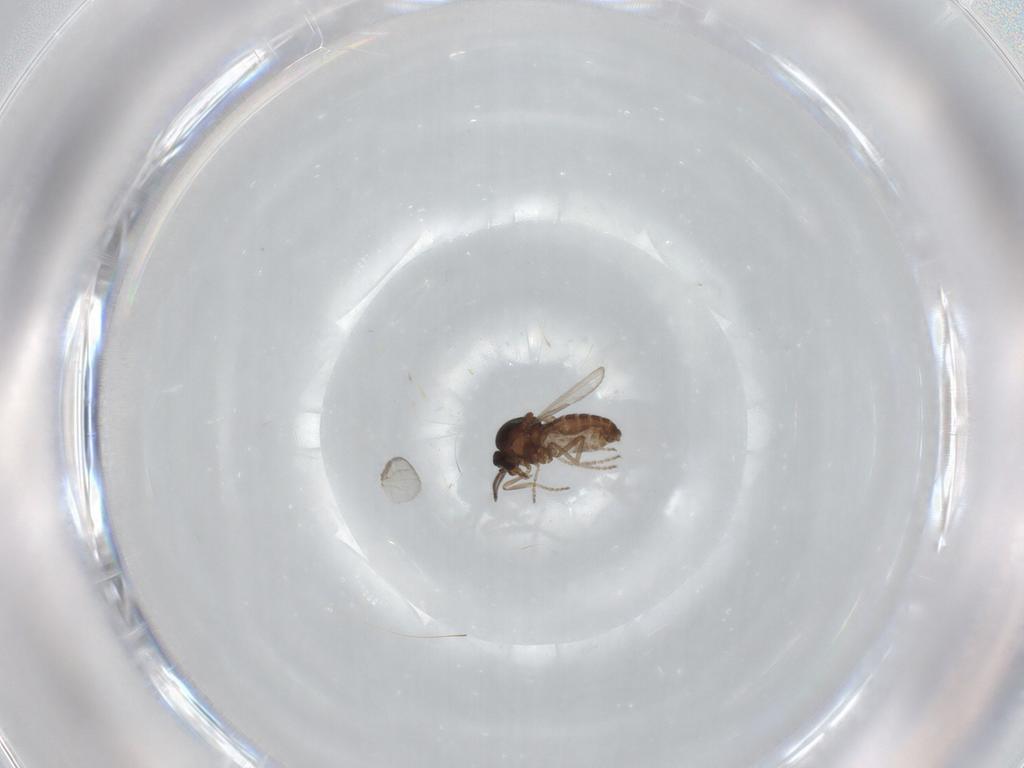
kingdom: Animalia
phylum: Arthropoda
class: Insecta
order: Diptera
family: Ceratopogonidae
